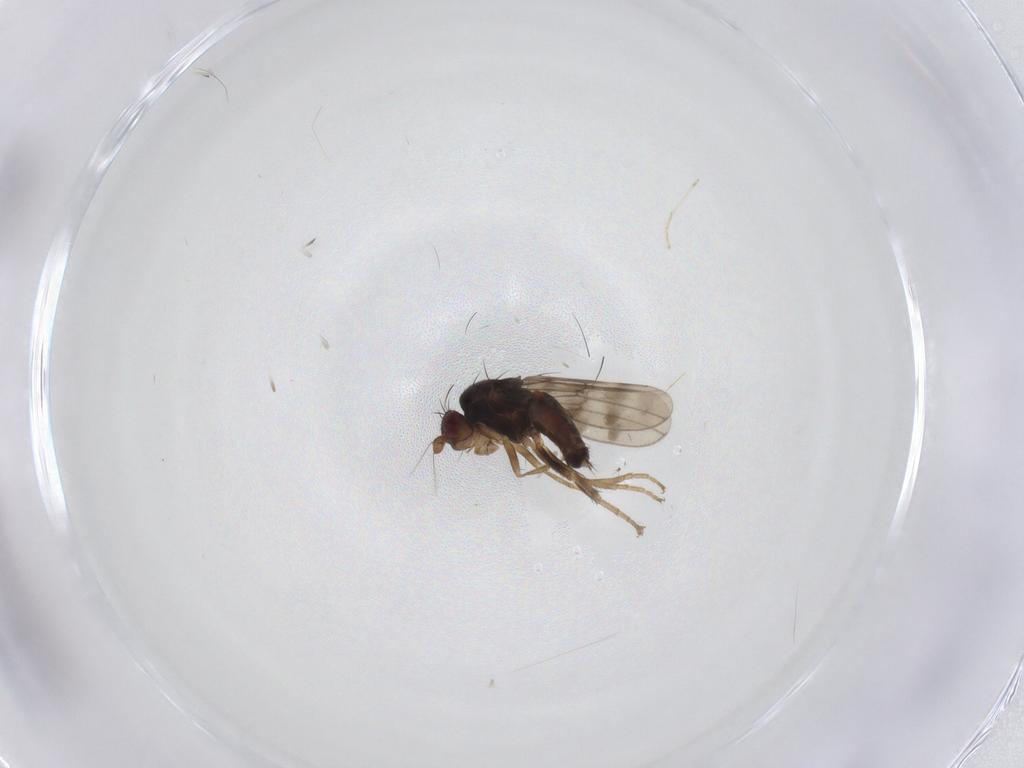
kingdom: Animalia
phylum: Arthropoda
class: Insecta
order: Diptera
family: Sphaeroceridae
